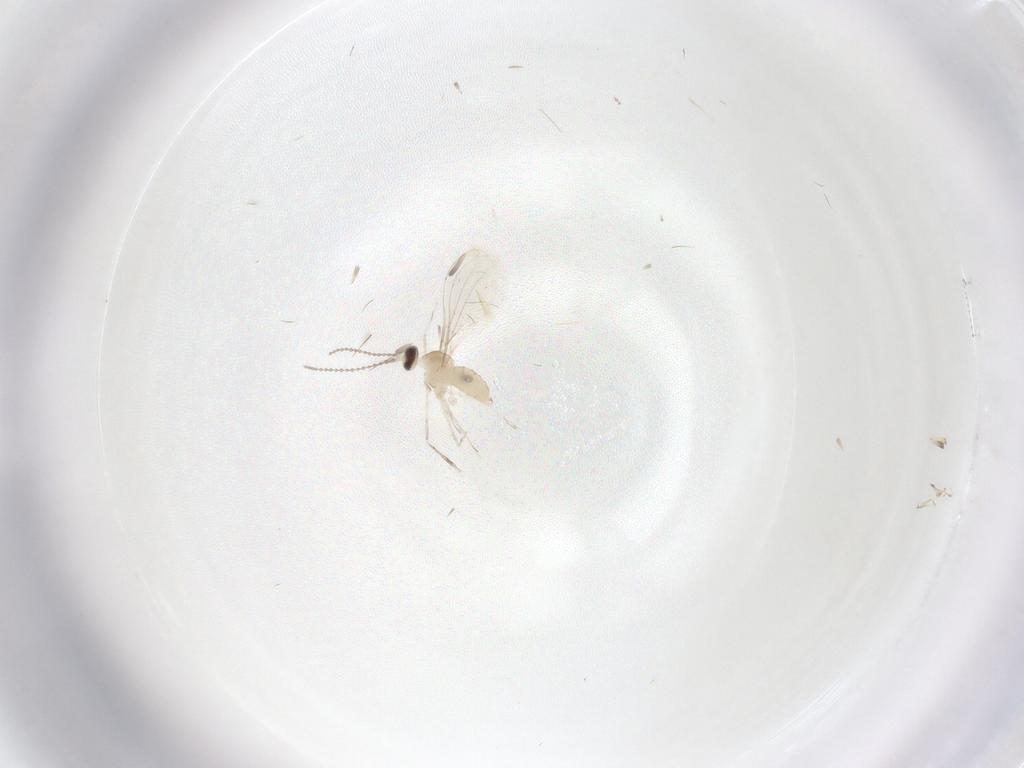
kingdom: Animalia
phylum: Arthropoda
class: Insecta
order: Diptera
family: Cecidomyiidae
